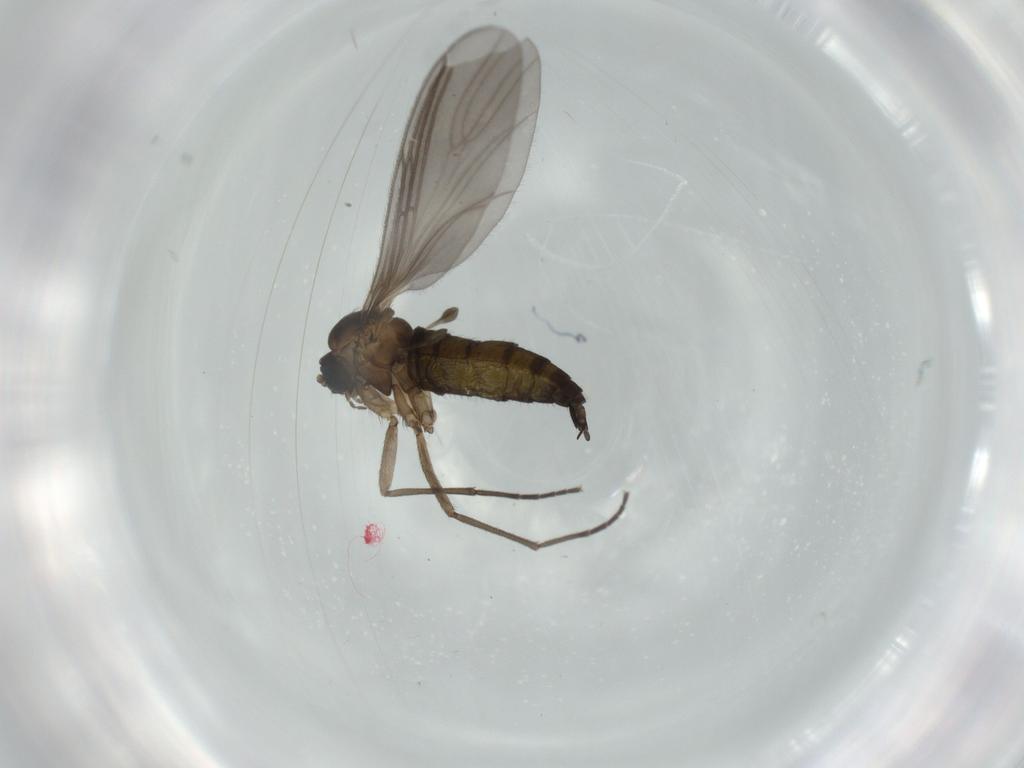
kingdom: Animalia
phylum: Arthropoda
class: Insecta
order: Diptera
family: Sciaridae
